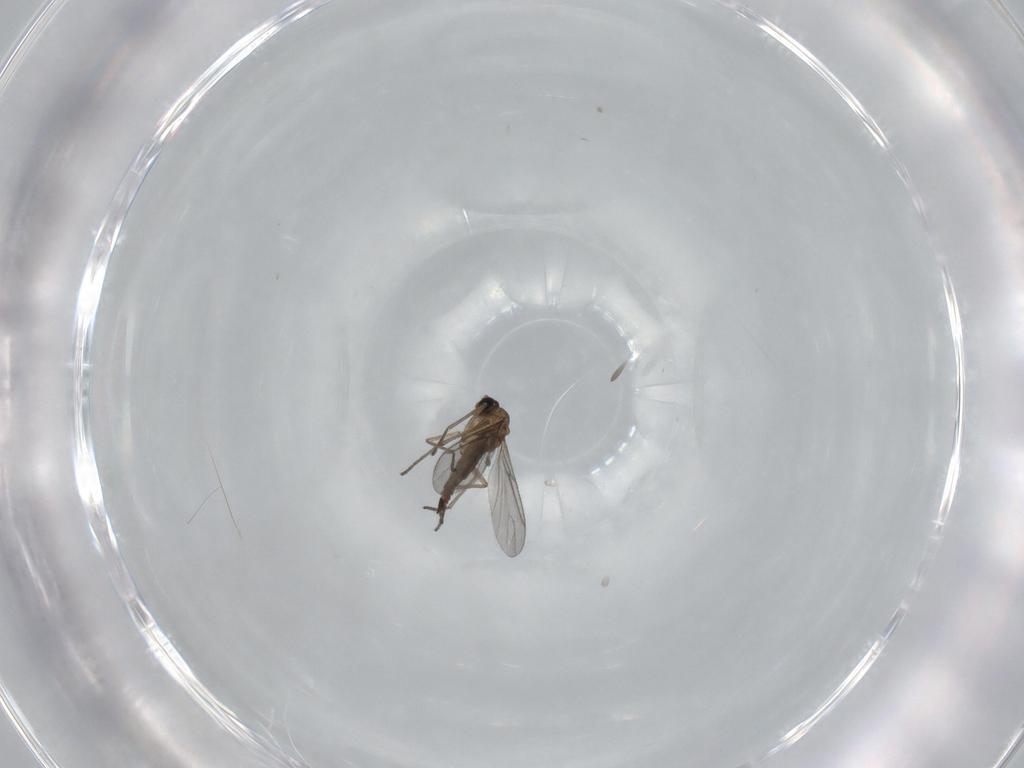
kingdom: Animalia
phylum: Arthropoda
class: Insecta
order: Diptera
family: Sciaridae
